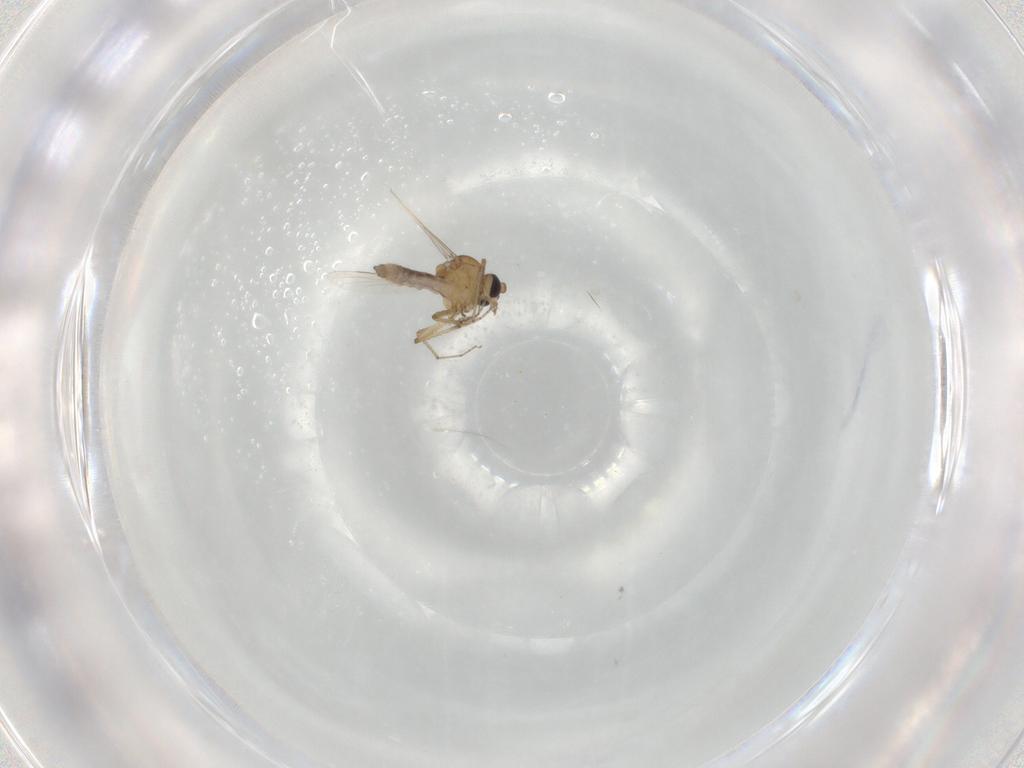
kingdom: Animalia
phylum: Arthropoda
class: Insecta
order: Diptera
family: Ceratopogonidae
